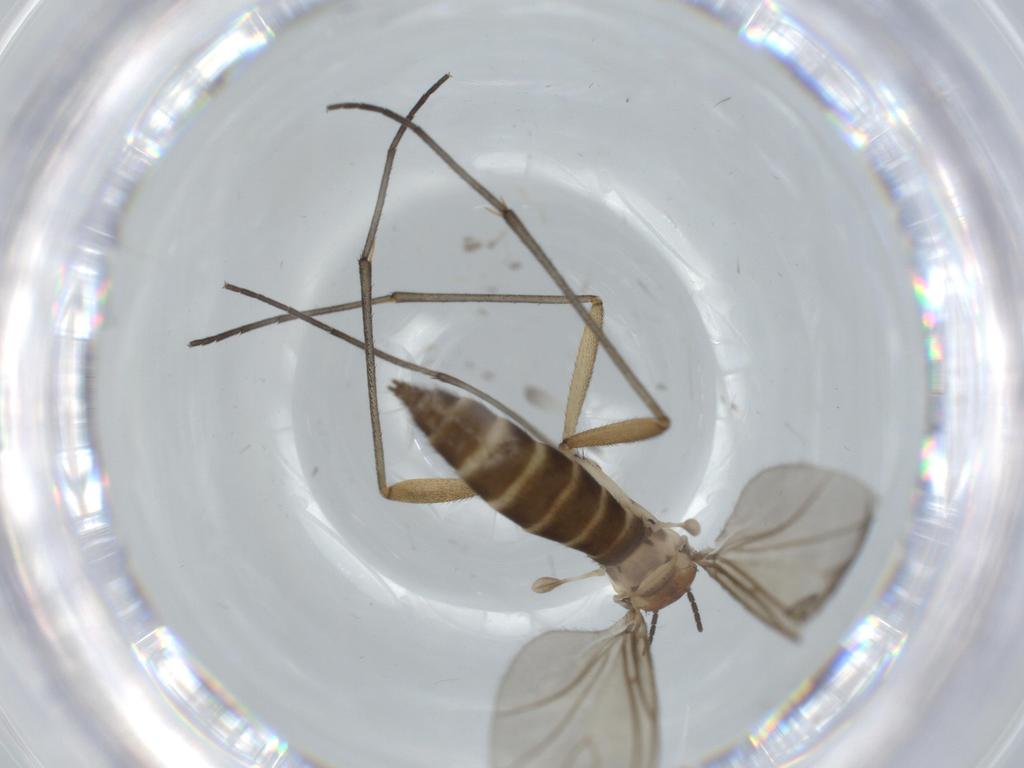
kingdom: Animalia
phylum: Arthropoda
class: Insecta
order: Diptera
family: Sciaridae
